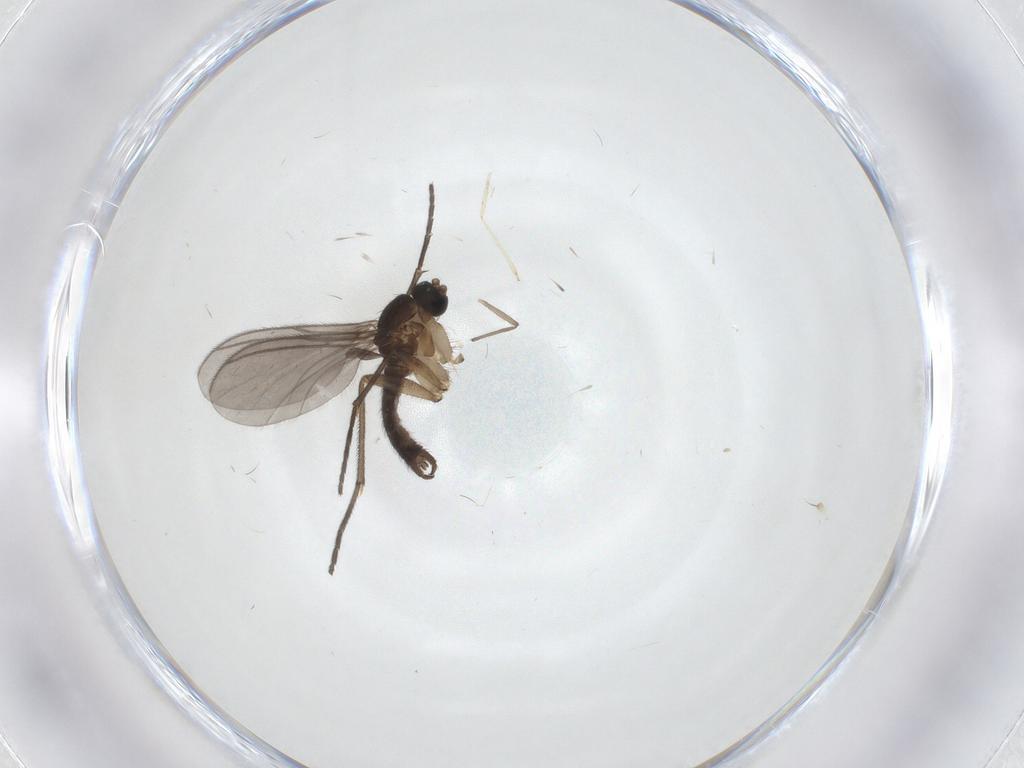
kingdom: Animalia
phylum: Arthropoda
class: Insecta
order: Diptera
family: Sciaridae
